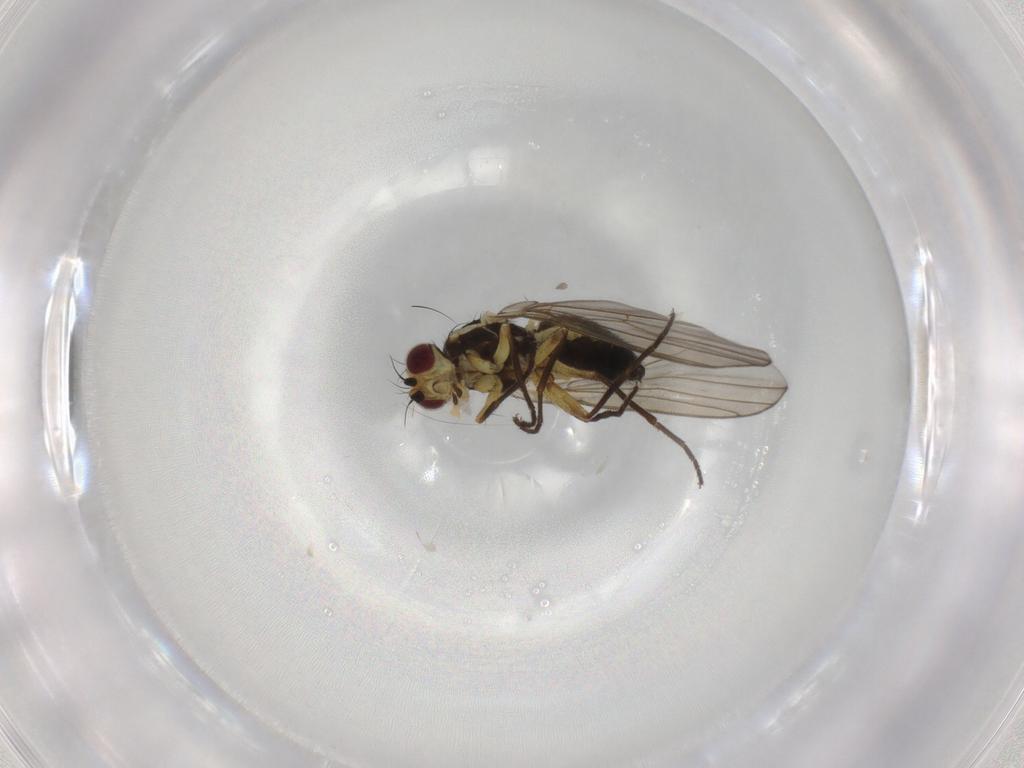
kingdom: Animalia
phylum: Arthropoda
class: Insecta
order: Diptera
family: Agromyzidae
